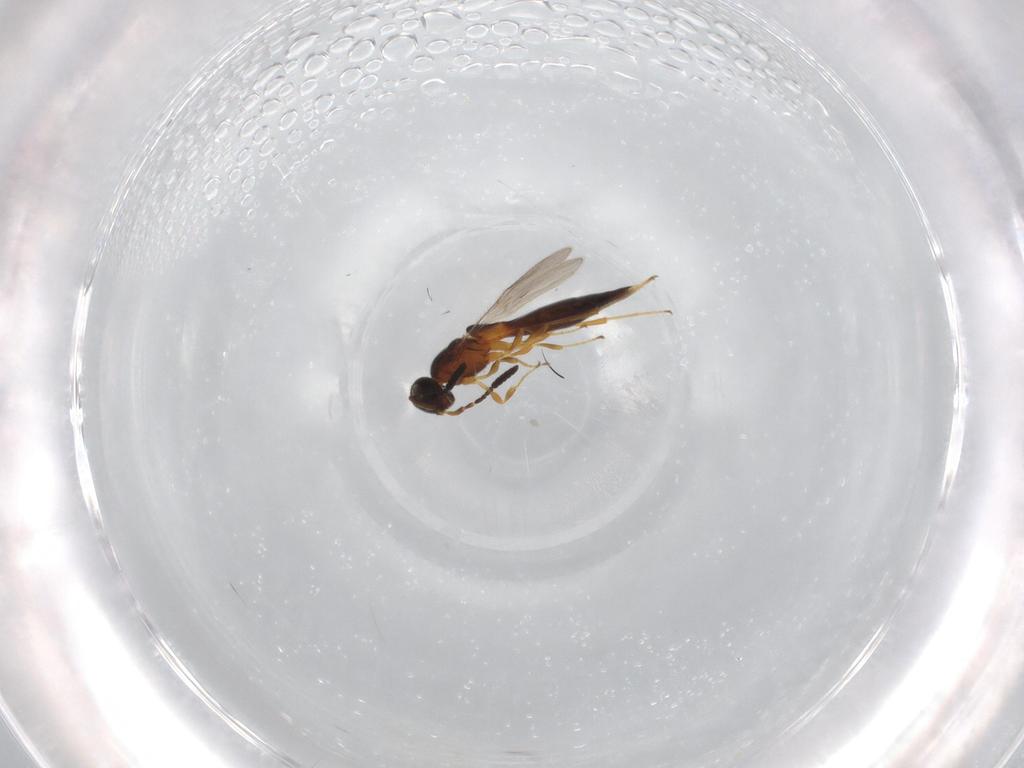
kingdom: Animalia
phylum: Arthropoda
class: Insecta
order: Hymenoptera
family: Scelionidae
